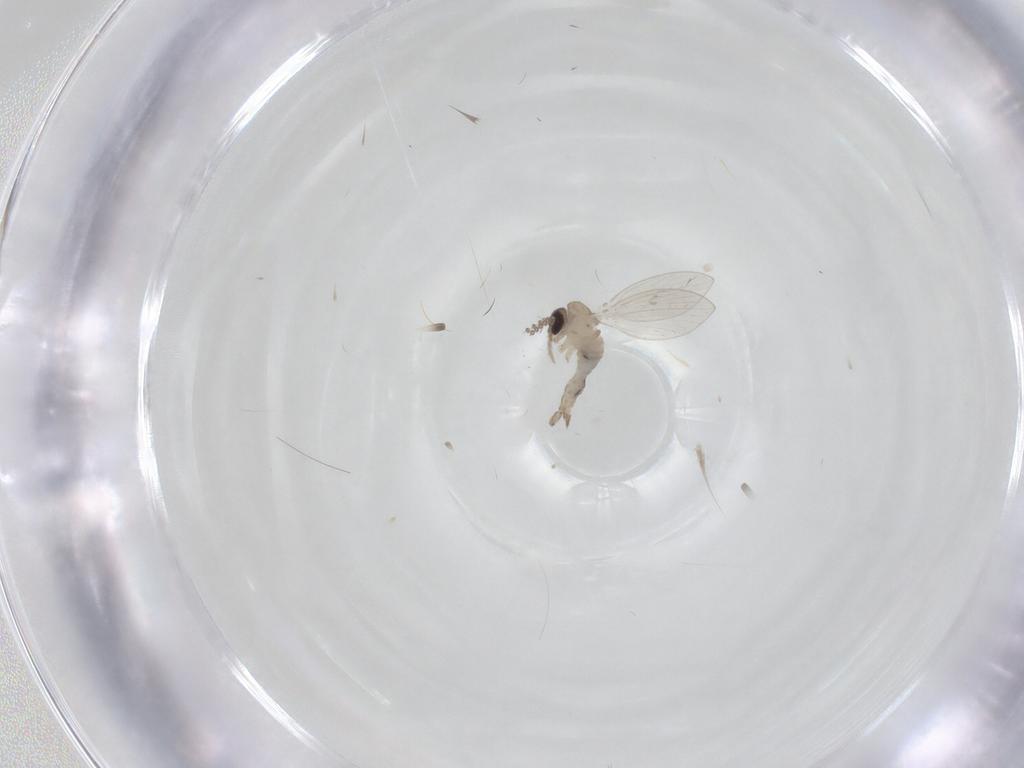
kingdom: Animalia
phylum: Arthropoda
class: Insecta
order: Diptera
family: Psychodidae
